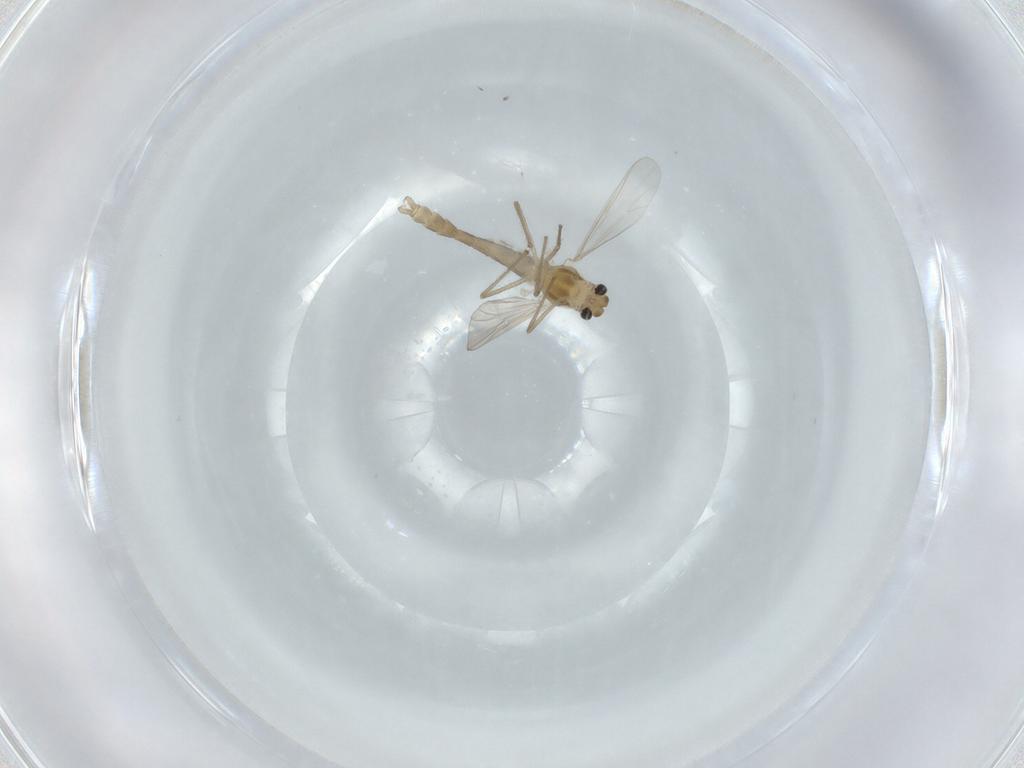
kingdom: Animalia
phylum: Arthropoda
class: Insecta
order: Diptera
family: Chironomidae
